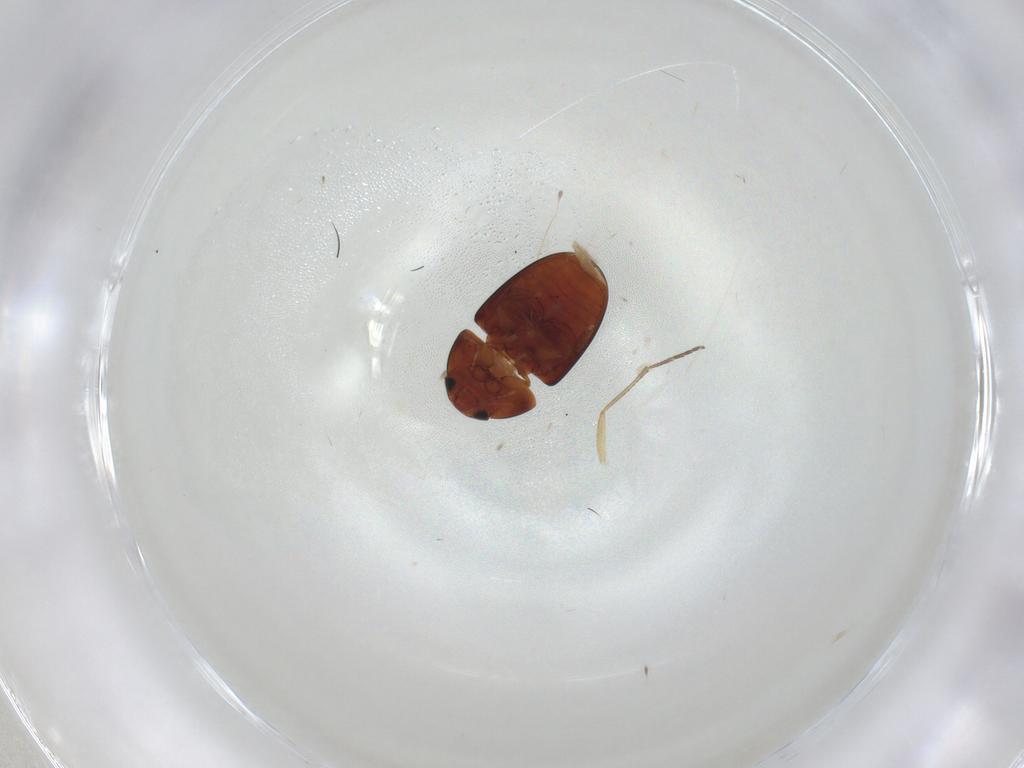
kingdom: Animalia
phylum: Arthropoda
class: Insecta
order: Coleoptera
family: Phalacridae
